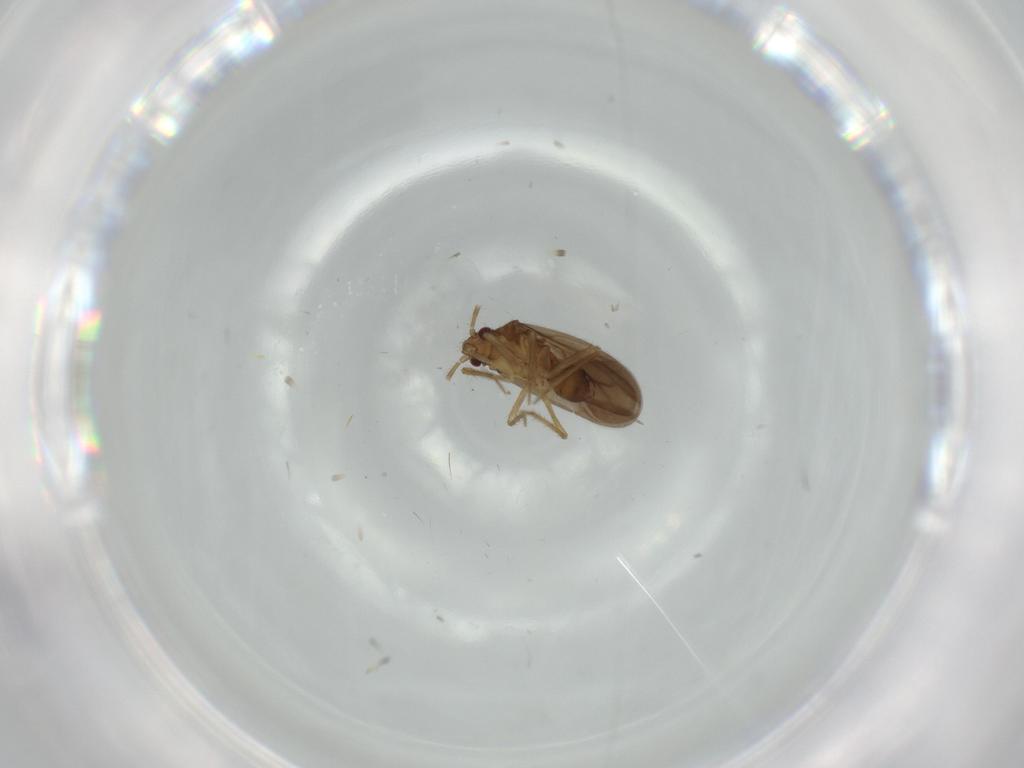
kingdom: Animalia
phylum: Arthropoda
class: Insecta
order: Hemiptera
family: Ceratocombidae
